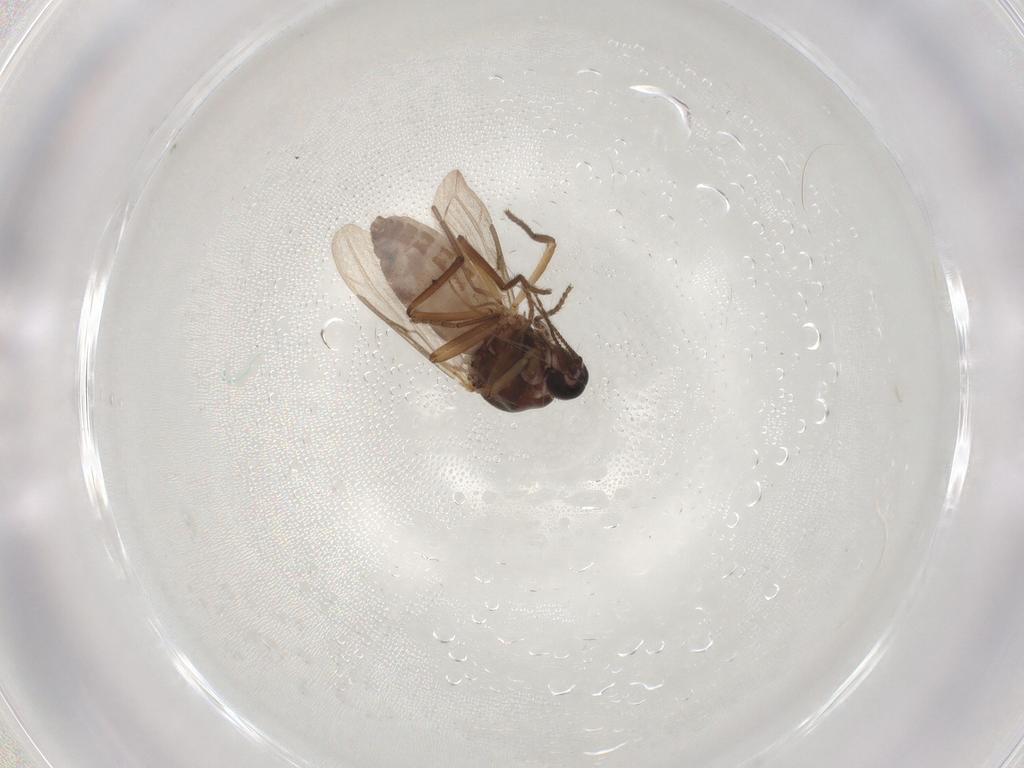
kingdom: Animalia
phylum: Arthropoda
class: Insecta
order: Diptera
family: Ceratopogonidae
